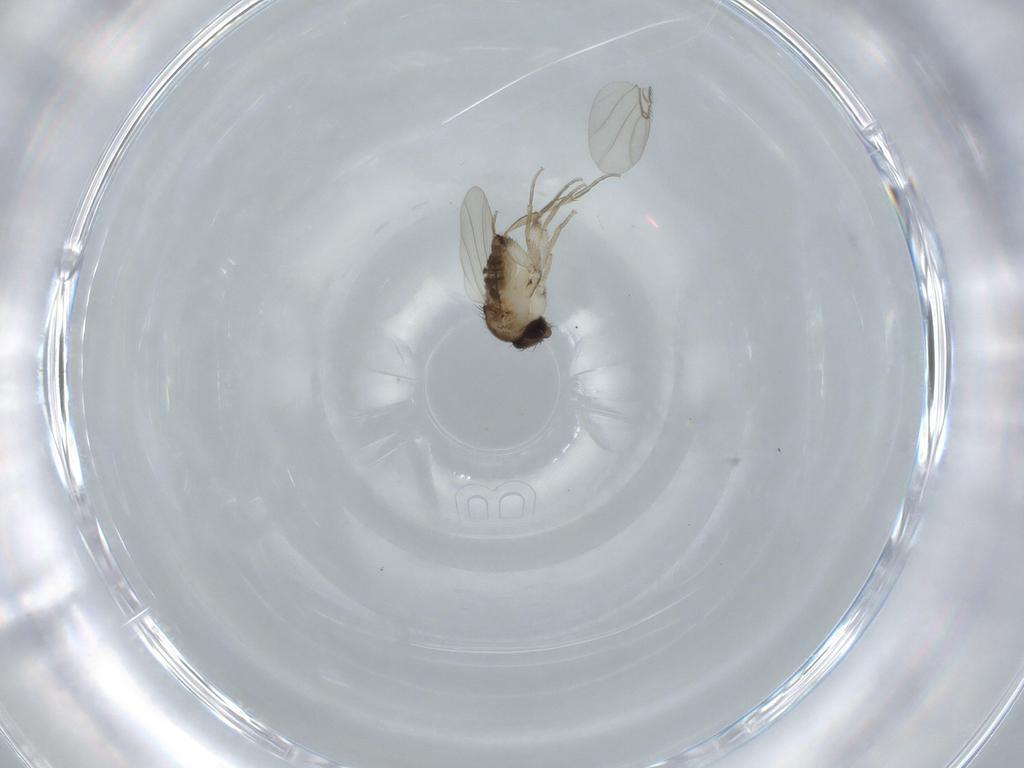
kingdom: Animalia
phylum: Arthropoda
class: Insecta
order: Diptera
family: Phoridae
